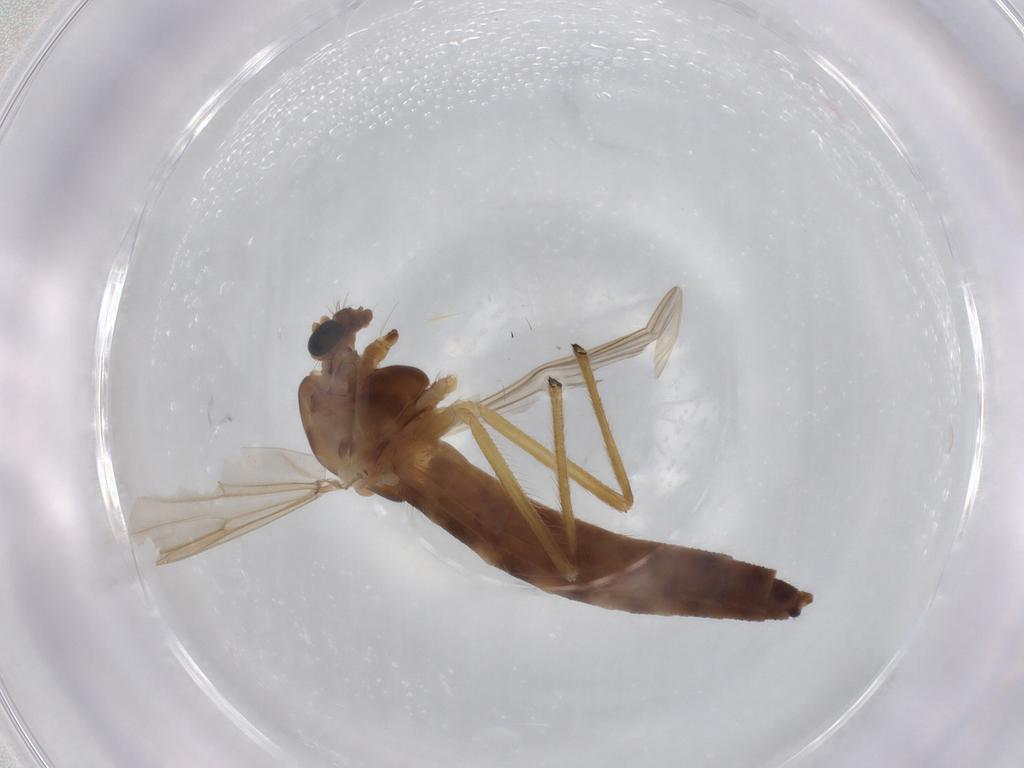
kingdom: Animalia
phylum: Arthropoda
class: Insecta
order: Diptera
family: Chironomidae
